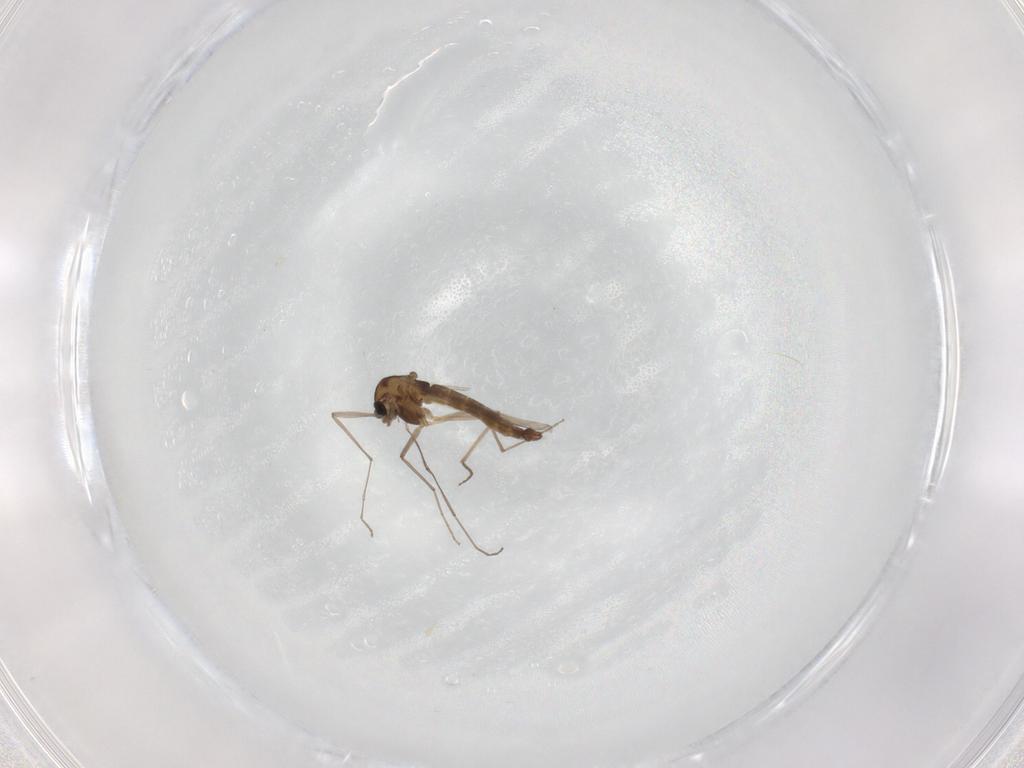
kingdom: Animalia
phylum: Arthropoda
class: Insecta
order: Diptera
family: Chironomidae
